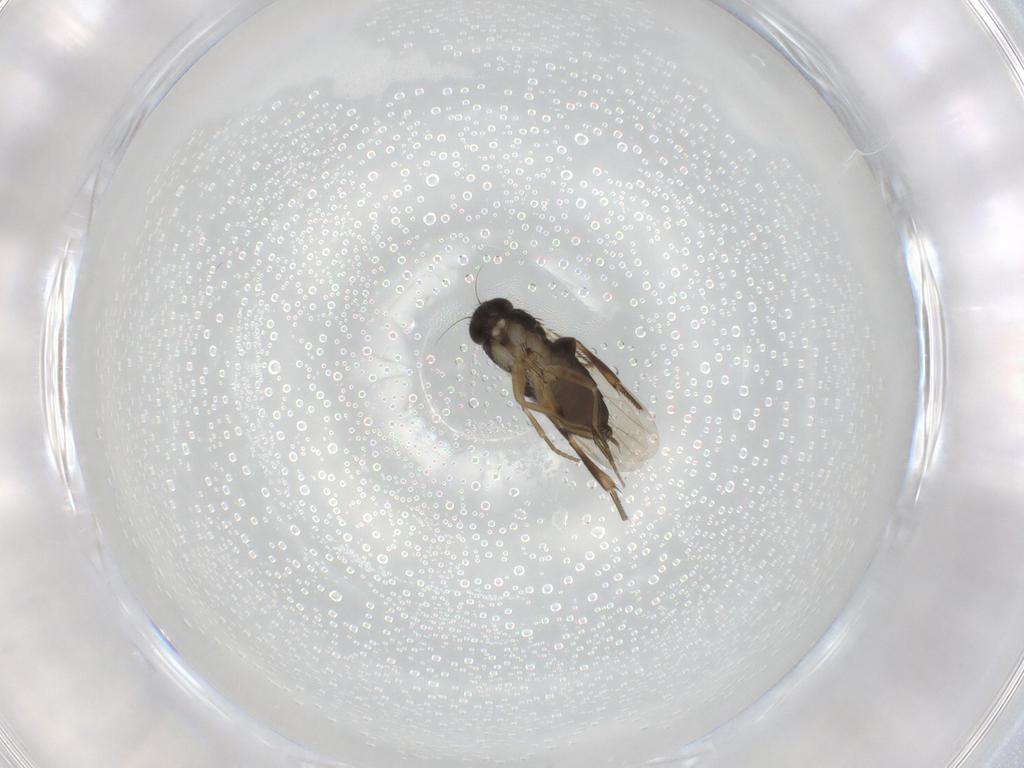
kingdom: Animalia
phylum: Arthropoda
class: Insecta
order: Diptera
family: Phoridae
